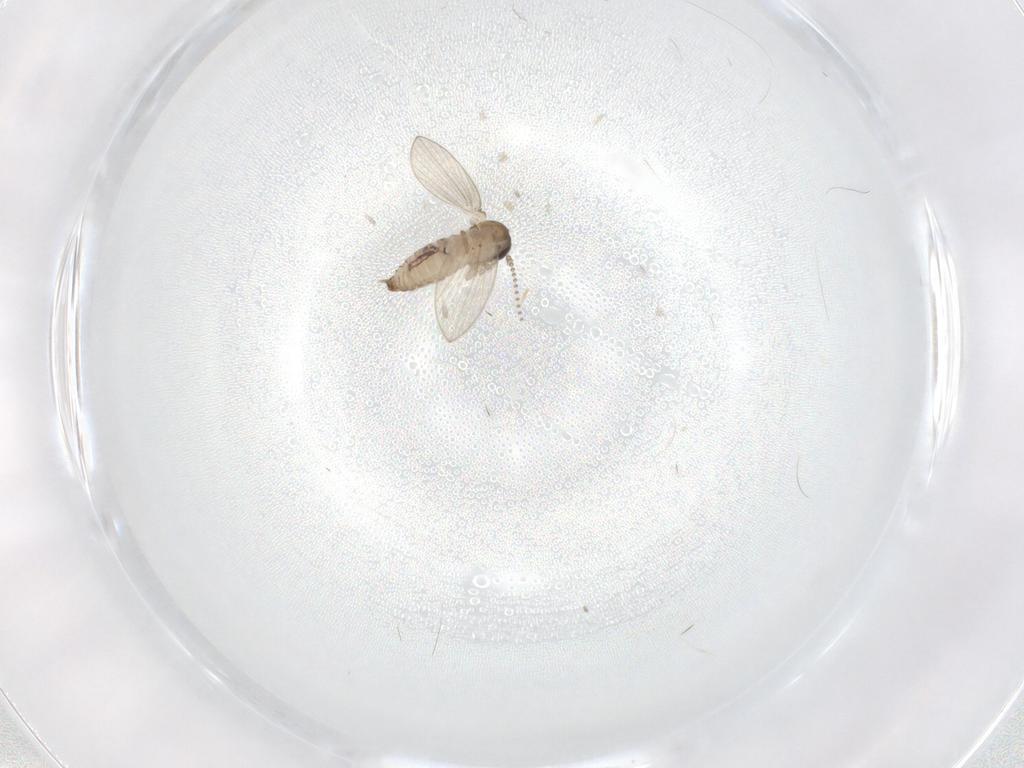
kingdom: Animalia
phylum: Arthropoda
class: Insecta
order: Diptera
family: Psychodidae
